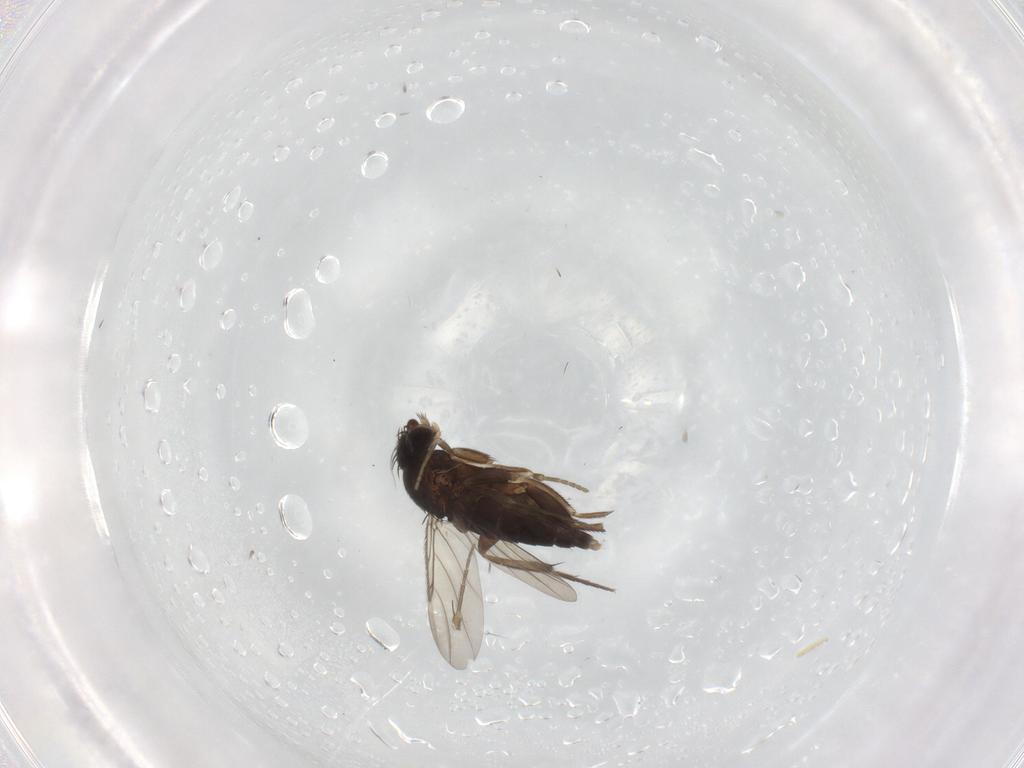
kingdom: Animalia
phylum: Arthropoda
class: Insecta
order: Diptera
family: Phoridae
